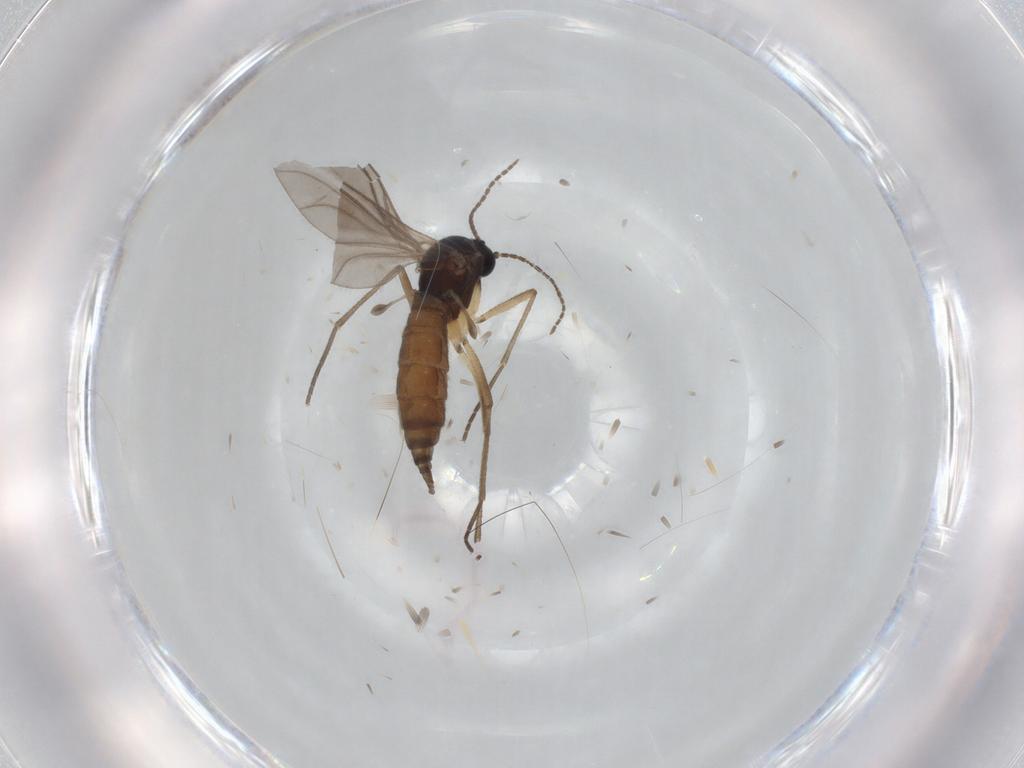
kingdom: Animalia
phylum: Arthropoda
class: Insecta
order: Diptera
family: Sciaridae
